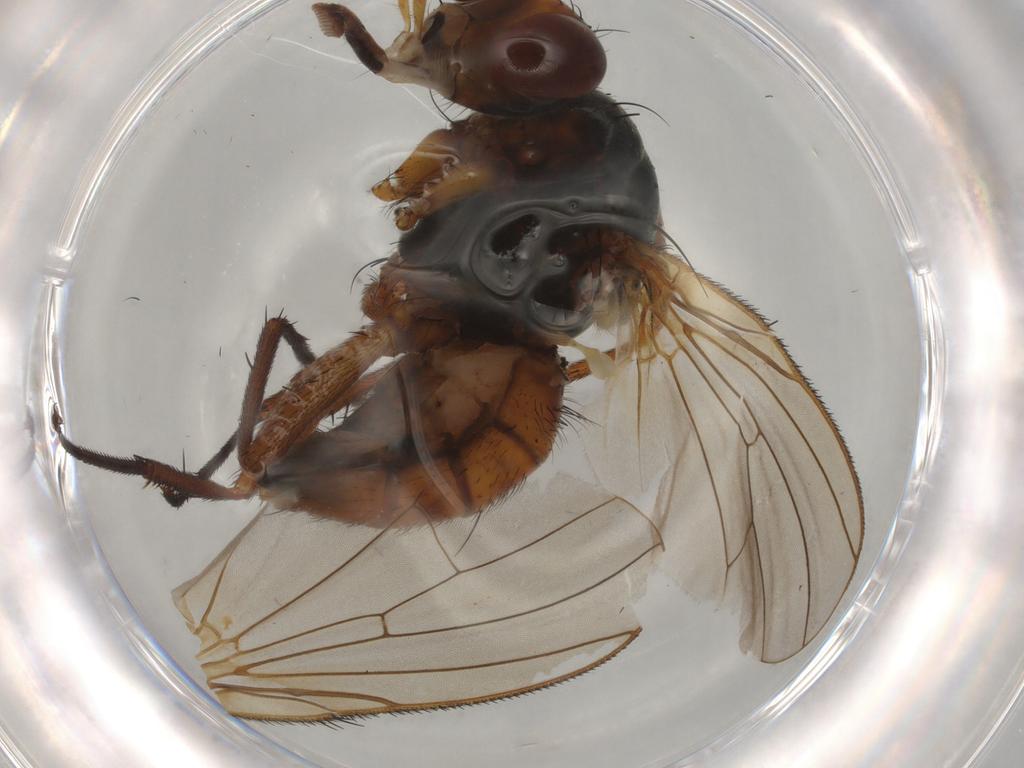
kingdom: Animalia
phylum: Arthropoda
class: Insecta
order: Diptera
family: Anthomyiidae
